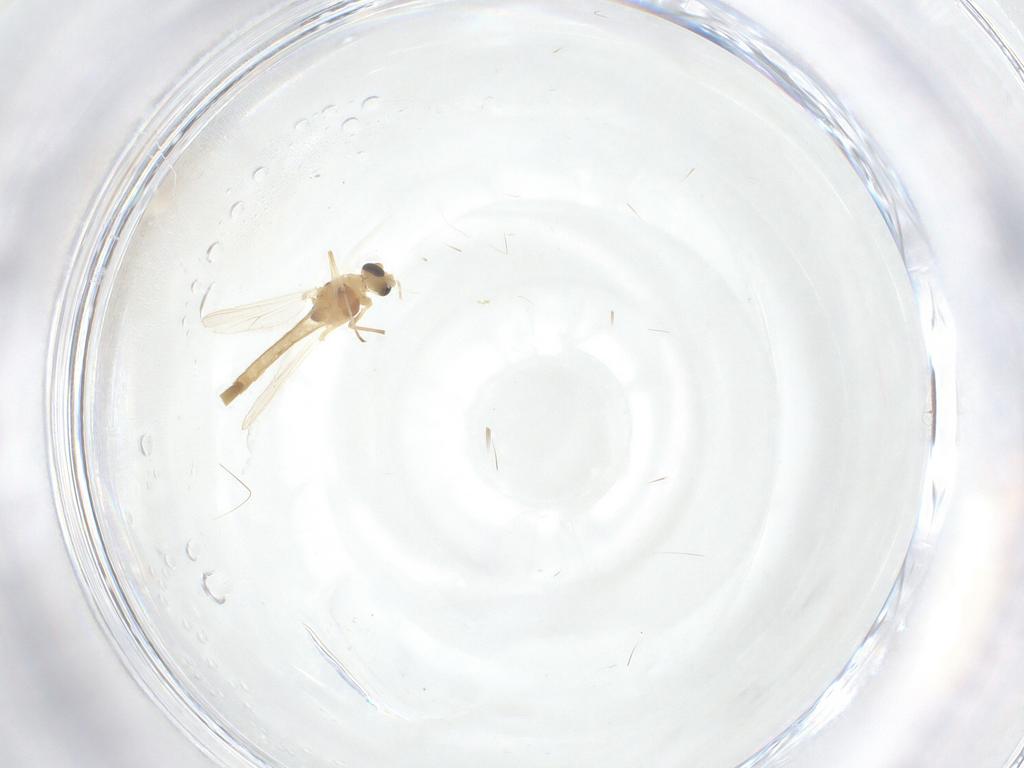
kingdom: Animalia
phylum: Arthropoda
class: Insecta
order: Diptera
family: Chironomidae
